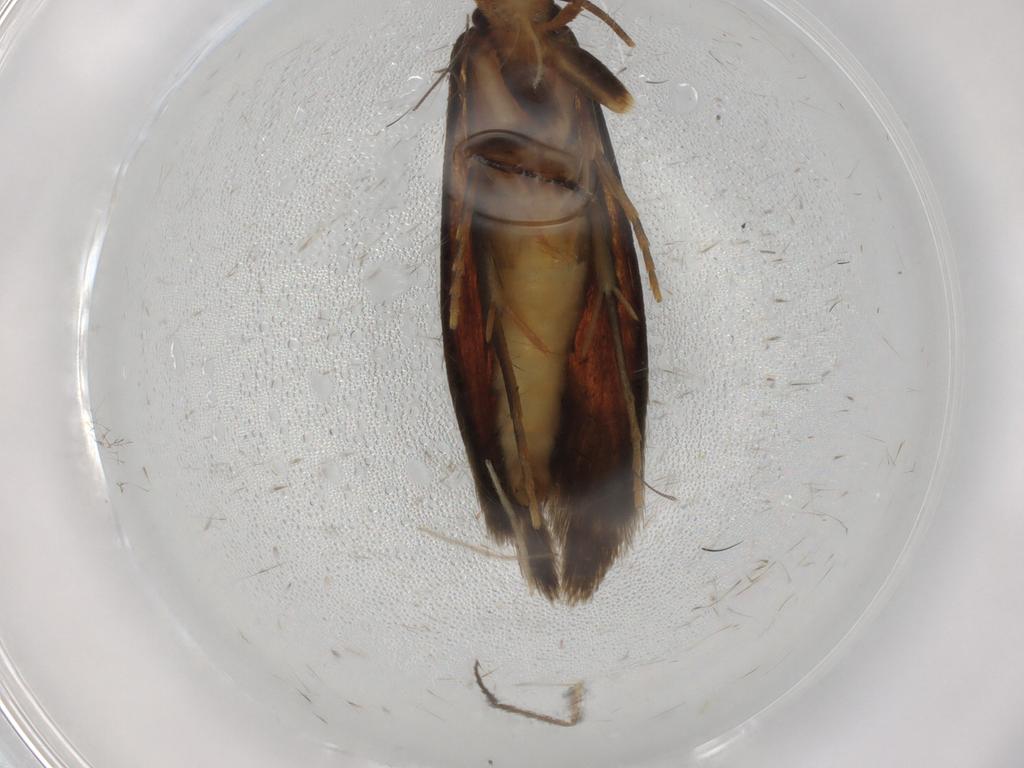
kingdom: Animalia
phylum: Arthropoda
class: Insecta
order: Lepidoptera
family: Tineidae
